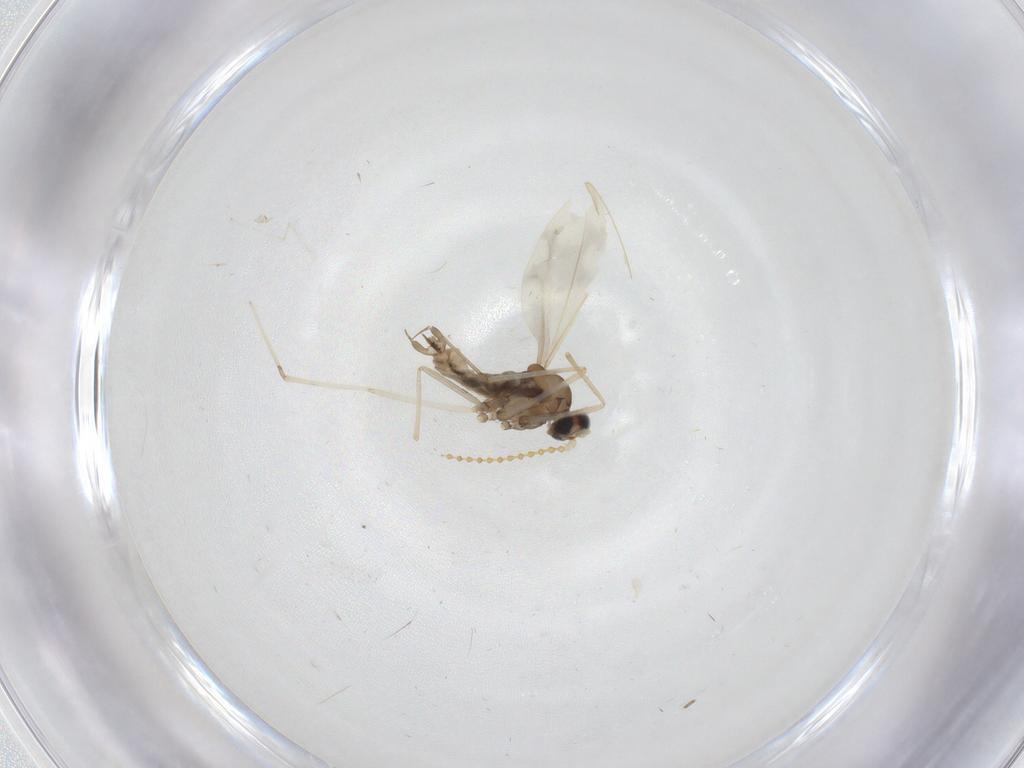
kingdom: Animalia
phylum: Arthropoda
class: Insecta
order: Diptera
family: Cecidomyiidae
